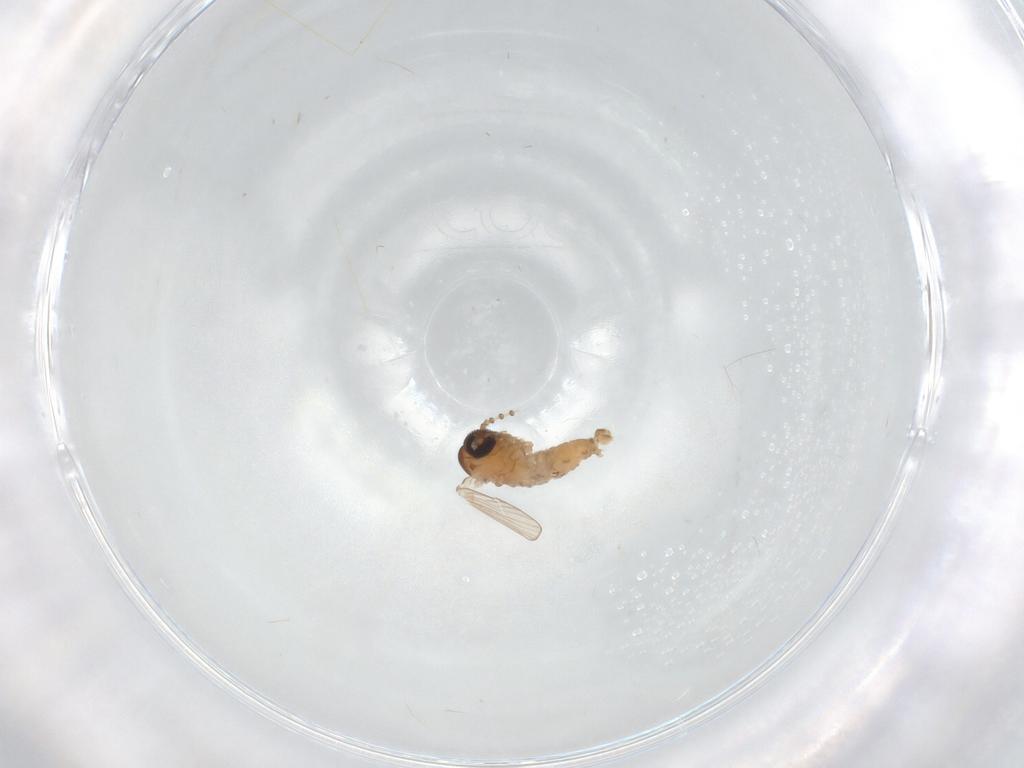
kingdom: Animalia
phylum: Arthropoda
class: Insecta
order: Diptera
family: Psychodidae
